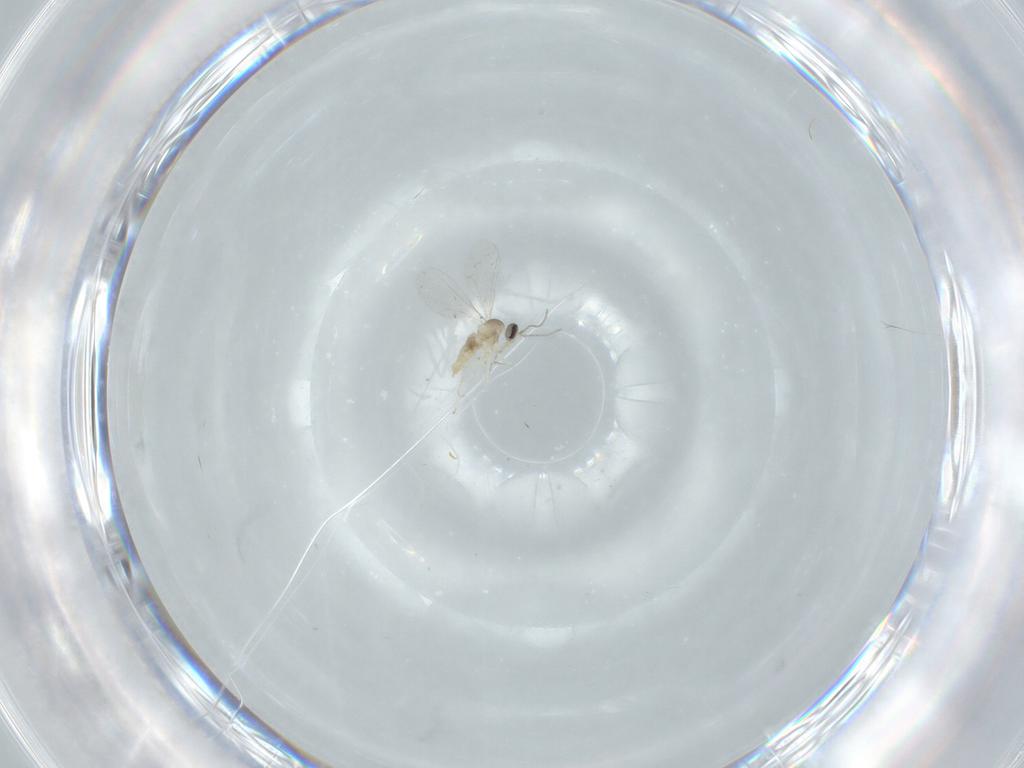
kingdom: Animalia
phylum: Arthropoda
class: Insecta
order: Diptera
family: Cecidomyiidae
